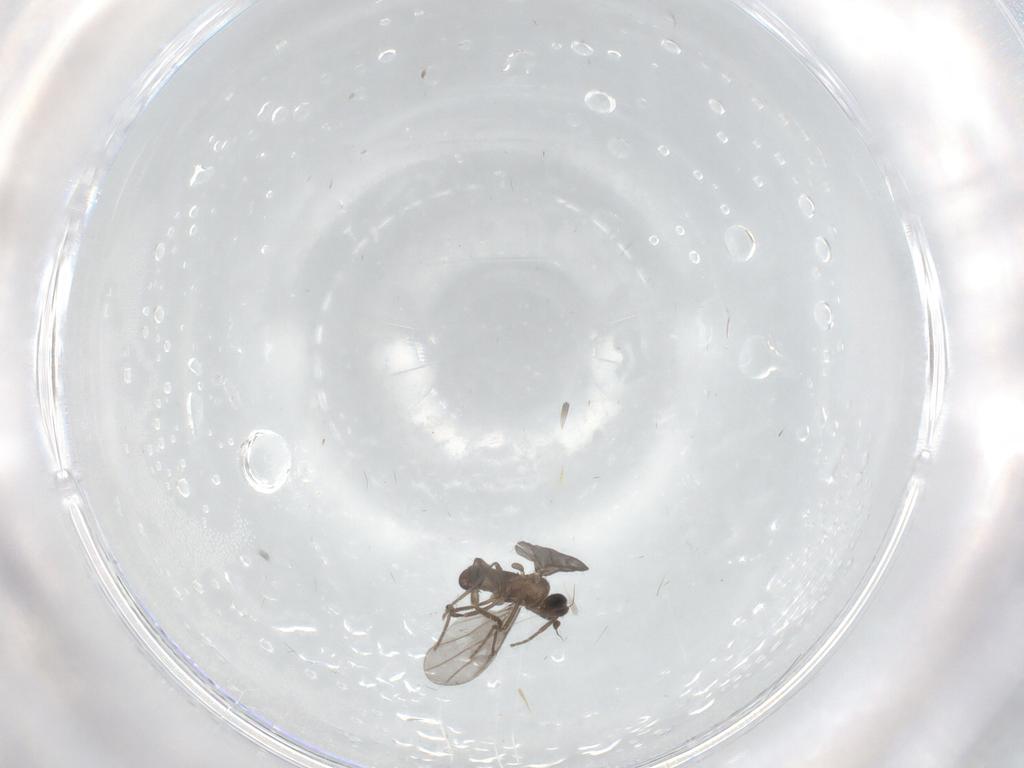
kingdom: Animalia
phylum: Arthropoda
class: Insecta
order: Diptera
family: Phoridae
